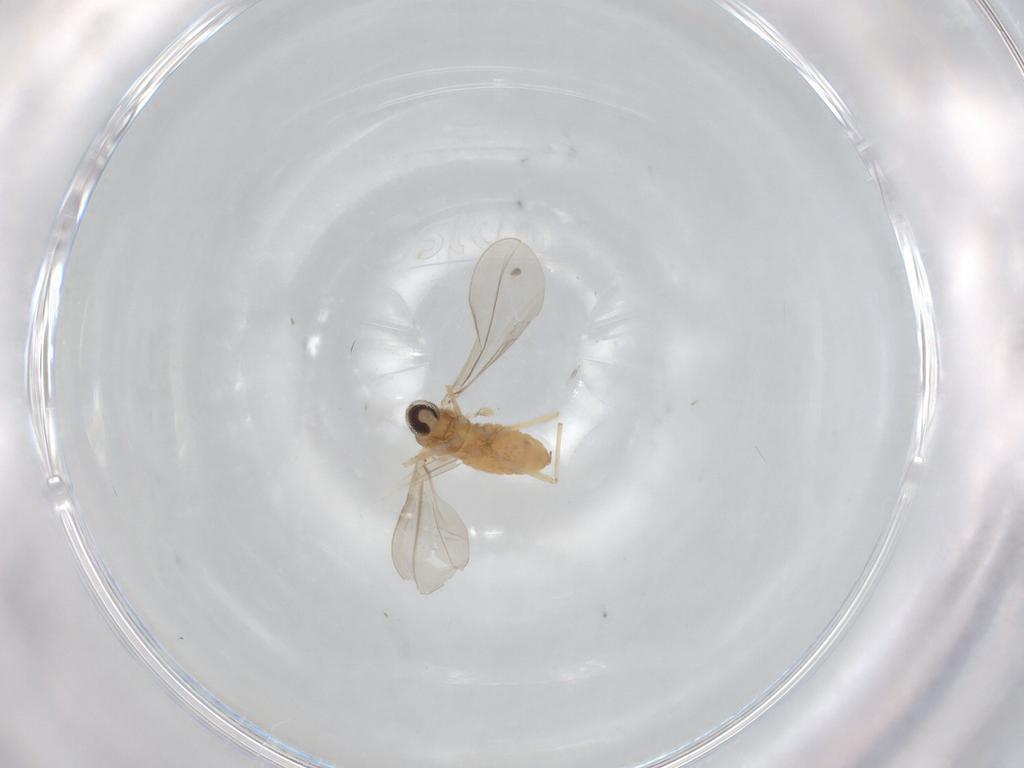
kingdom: Animalia
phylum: Arthropoda
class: Insecta
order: Diptera
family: Cecidomyiidae
